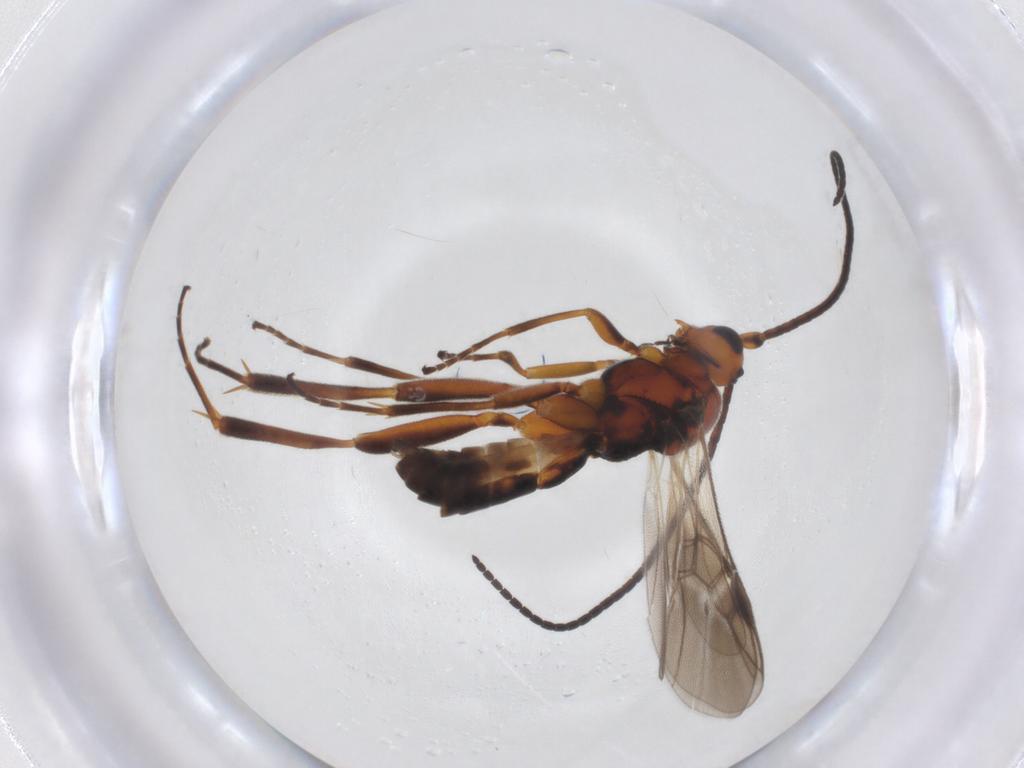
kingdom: Animalia
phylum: Arthropoda
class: Insecta
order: Hymenoptera
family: Braconidae
